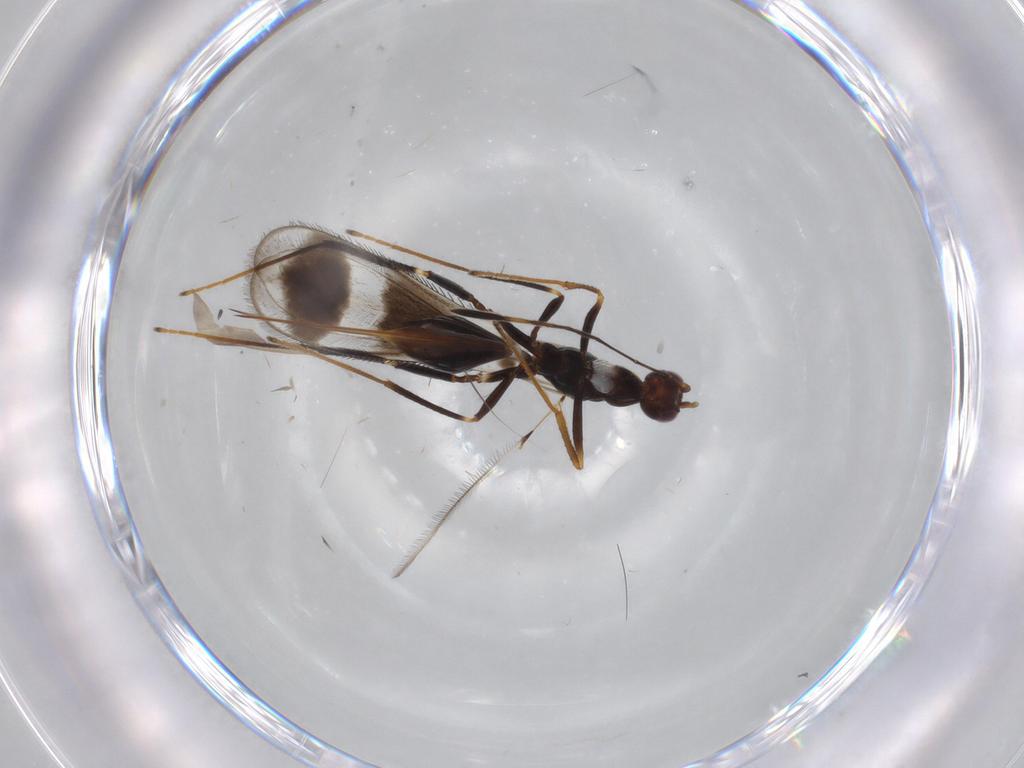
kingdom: Animalia
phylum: Arthropoda
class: Insecta
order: Hymenoptera
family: Mymaridae
